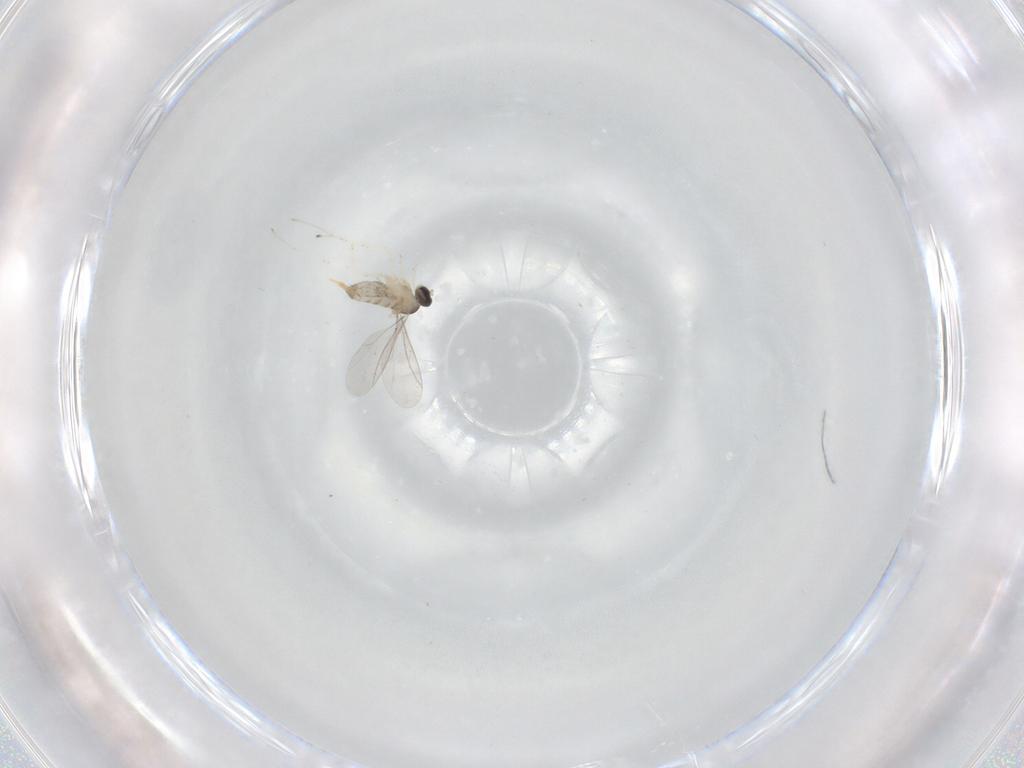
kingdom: Animalia
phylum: Arthropoda
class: Insecta
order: Diptera
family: Cecidomyiidae
